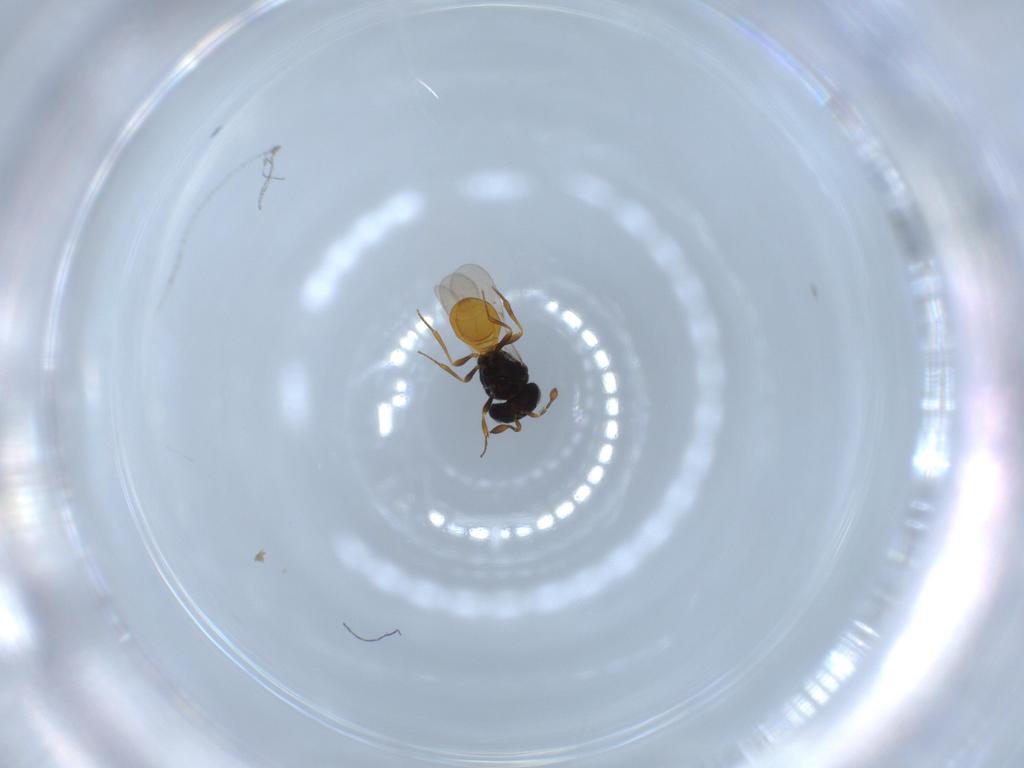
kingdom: Animalia
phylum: Arthropoda
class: Insecta
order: Hymenoptera
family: Scelionidae
